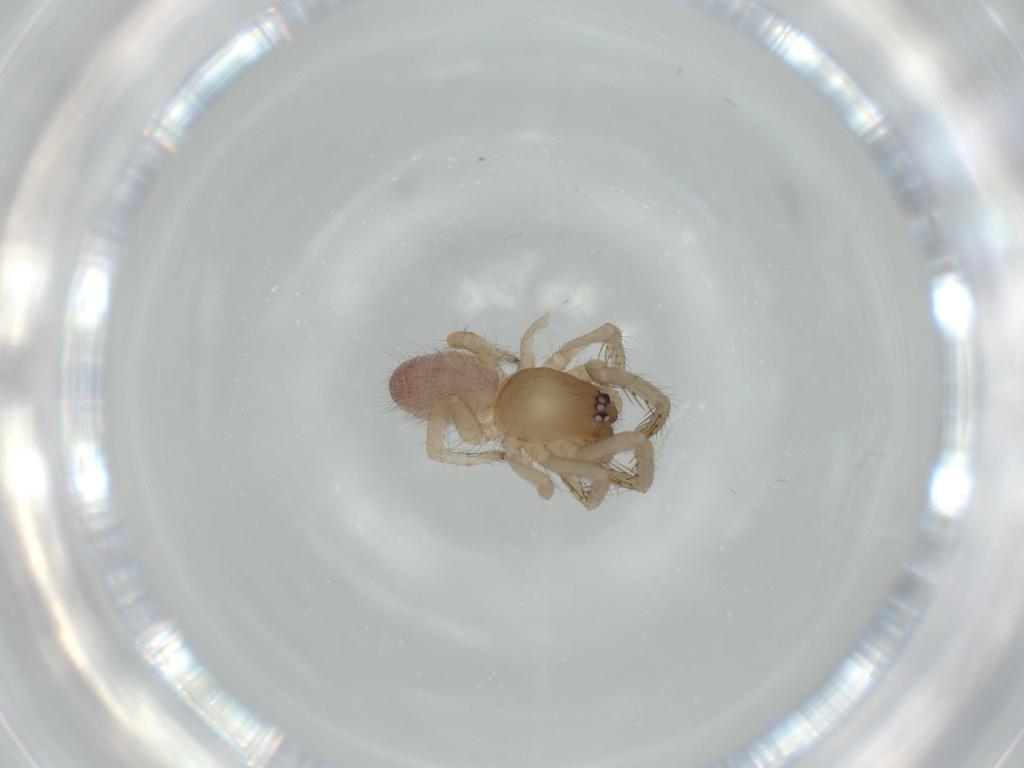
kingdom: Animalia
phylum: Arthropoda
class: Arachnida
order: Araneae
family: Segestriidae
